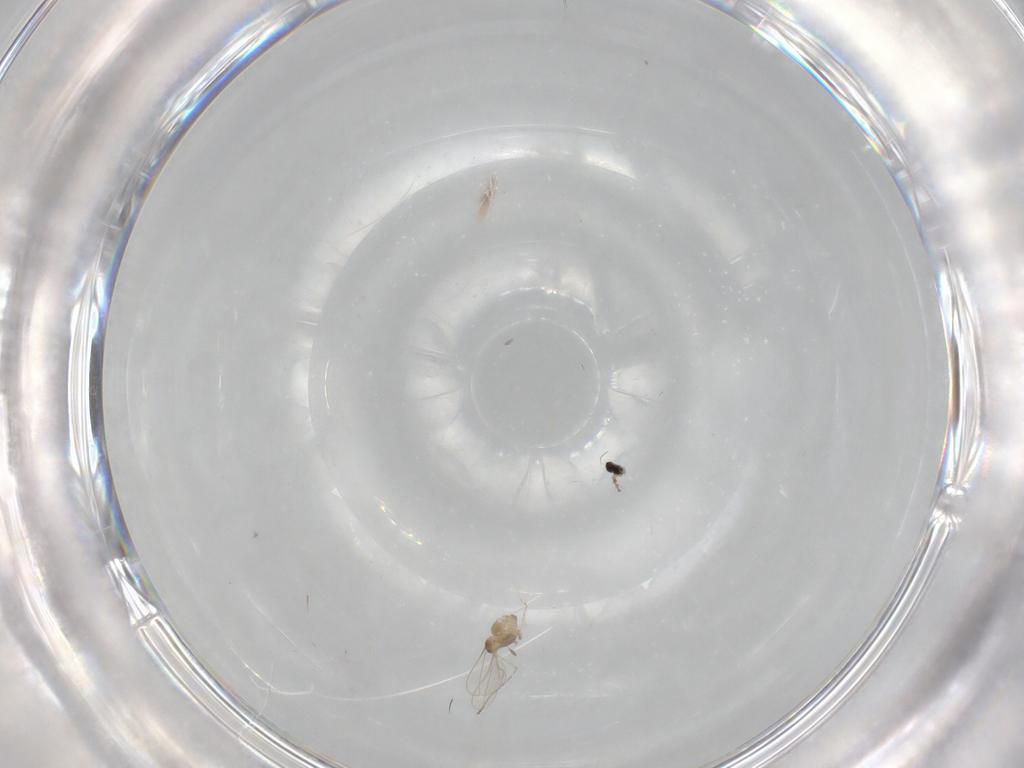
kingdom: Animalia
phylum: Arthropoda
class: Insecta
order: Diptera
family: Cecidomyiidae
